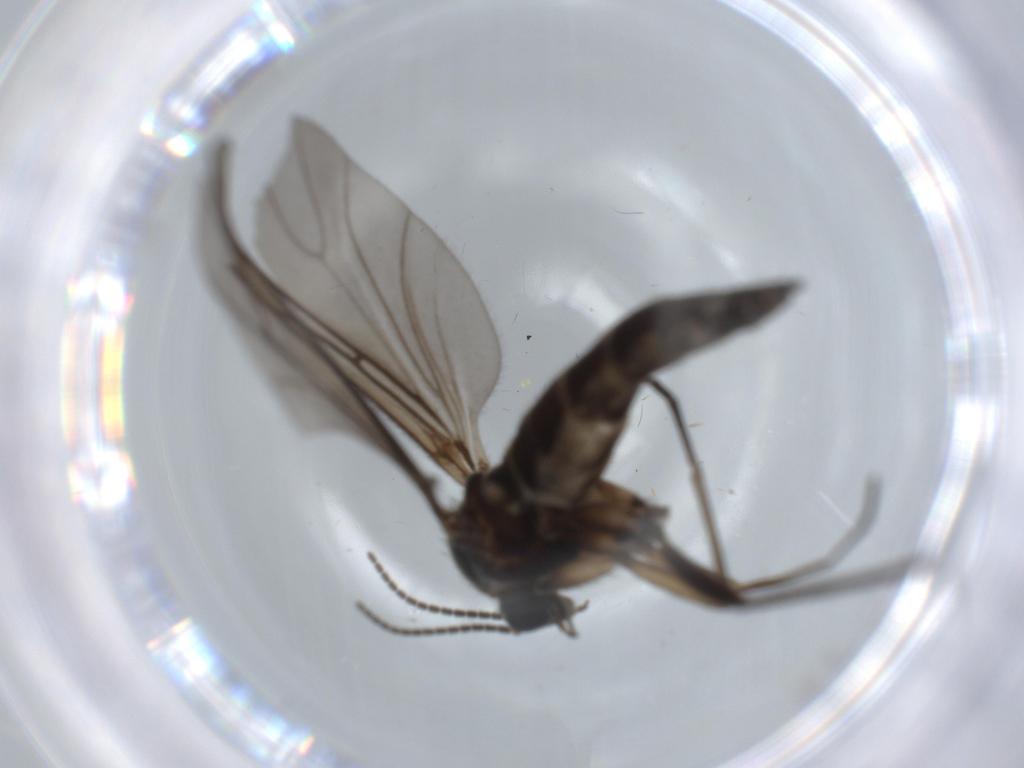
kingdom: Animalia
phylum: Arthropoda
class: Insecta
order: Diptera
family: Sciaridae
